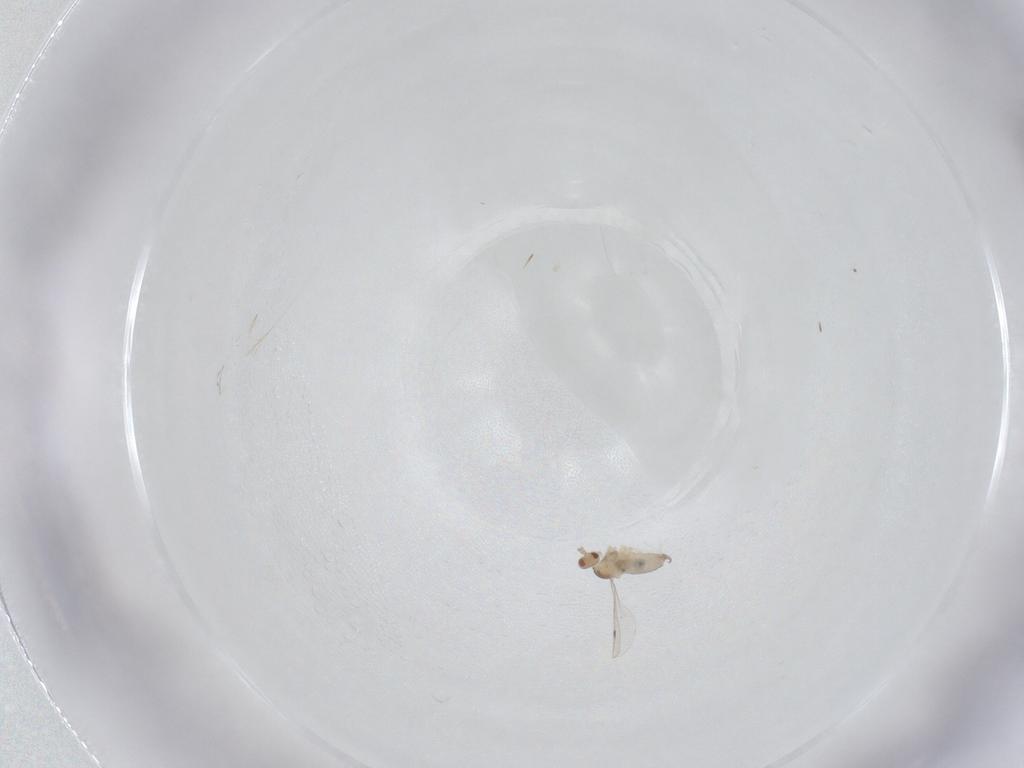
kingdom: Animalia
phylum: Arthropoda
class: Insecta
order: Diptera
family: Cecidomyiidae
